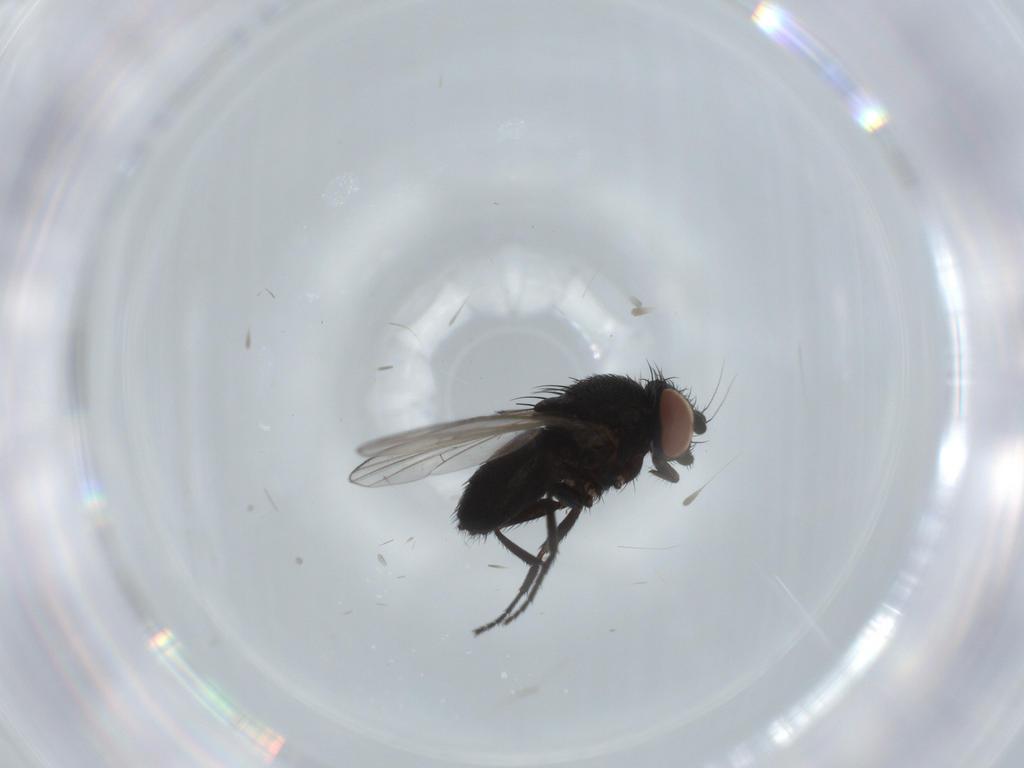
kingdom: Animalia
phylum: Arthropoda
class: Insecta
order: Diptera
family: Milichiidae
